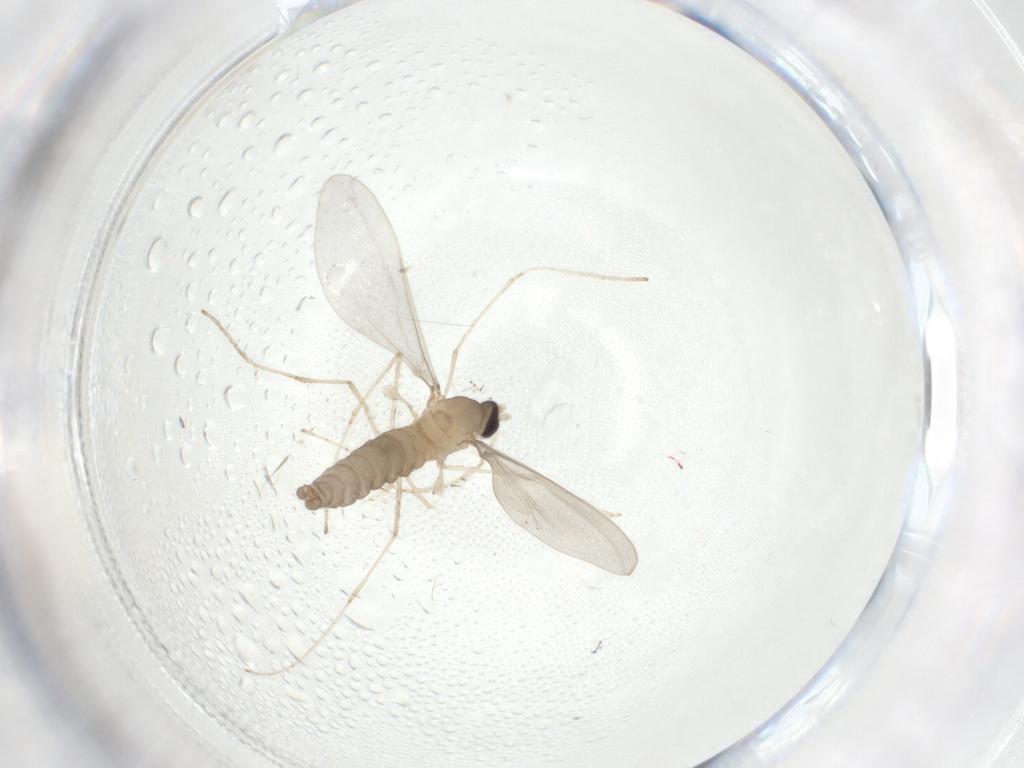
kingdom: Animalia
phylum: Arthropoda
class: Insecta
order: Diptera
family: Cecidomyiidae
